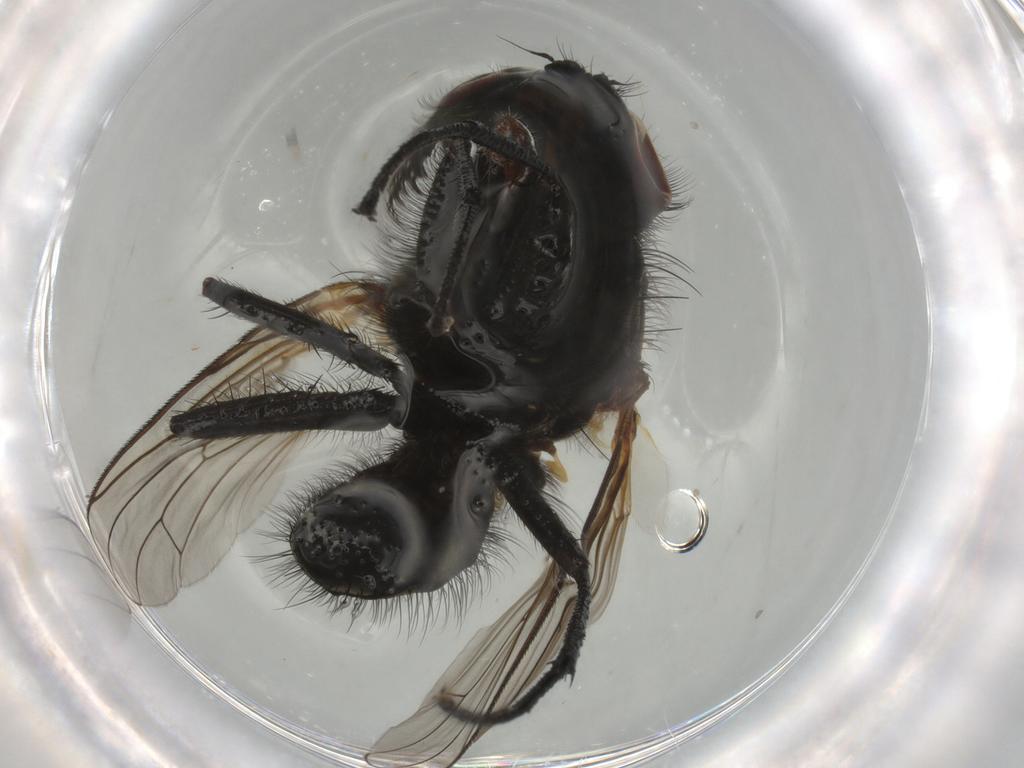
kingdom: Animalia
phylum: Arthropoda
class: Insecta
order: Diptera
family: Anthomyiidae
